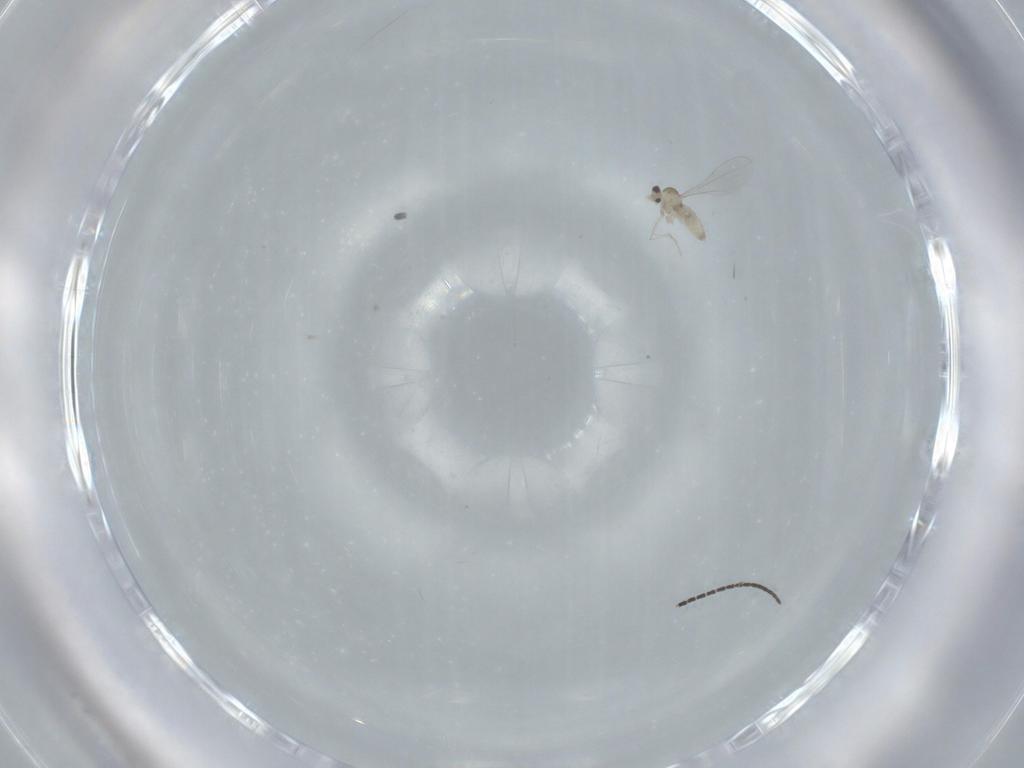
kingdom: Animalia
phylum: Arthropoda
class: Insecta
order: Diptera
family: Cecidomyiidae
